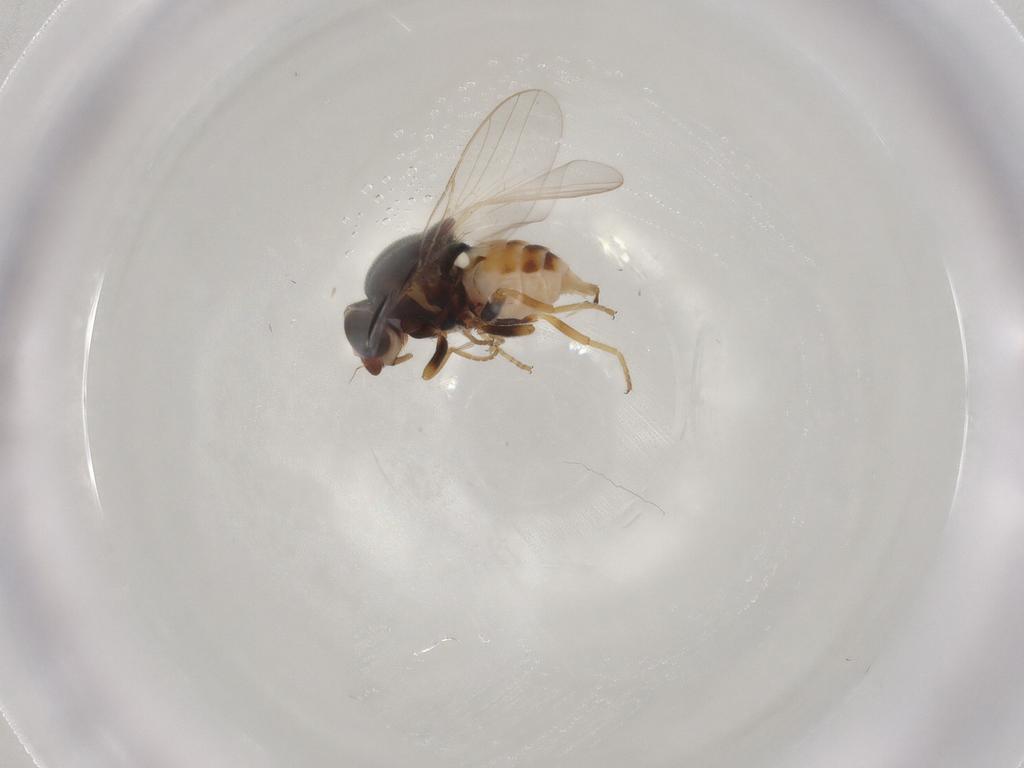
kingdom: Animalia
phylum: Arthropoda
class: Insecta
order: Diptera
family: Chloropidae
